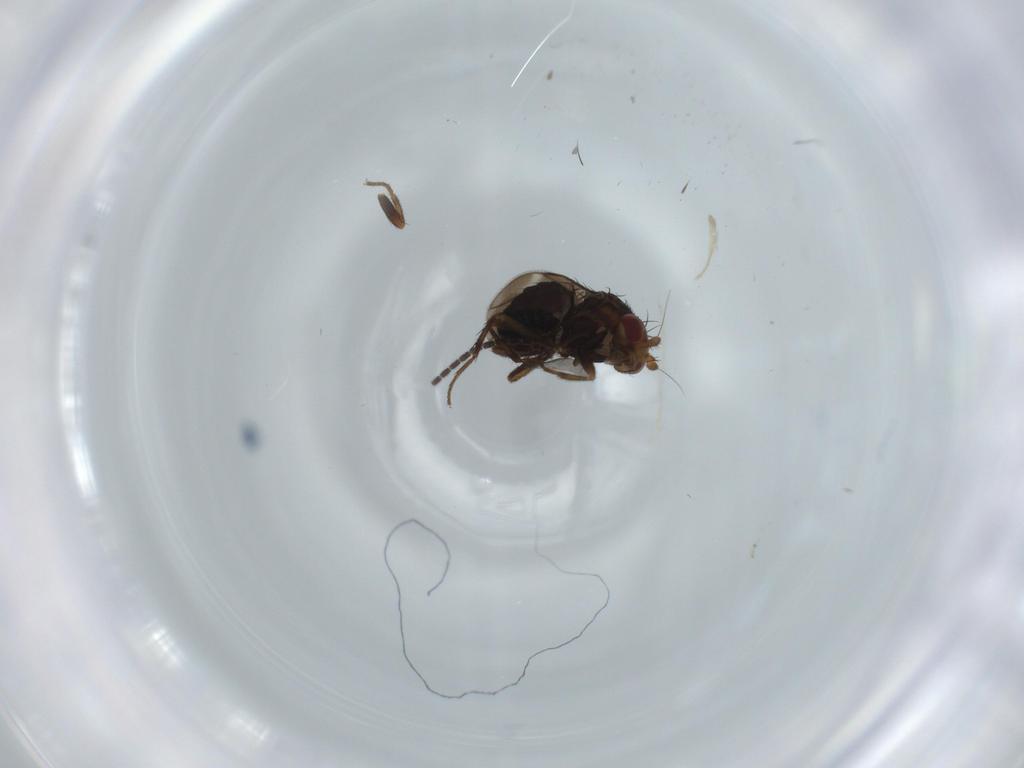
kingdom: Animalia
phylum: Arthropoda
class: Insecta
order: Diptera
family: Sphaeroceridae
